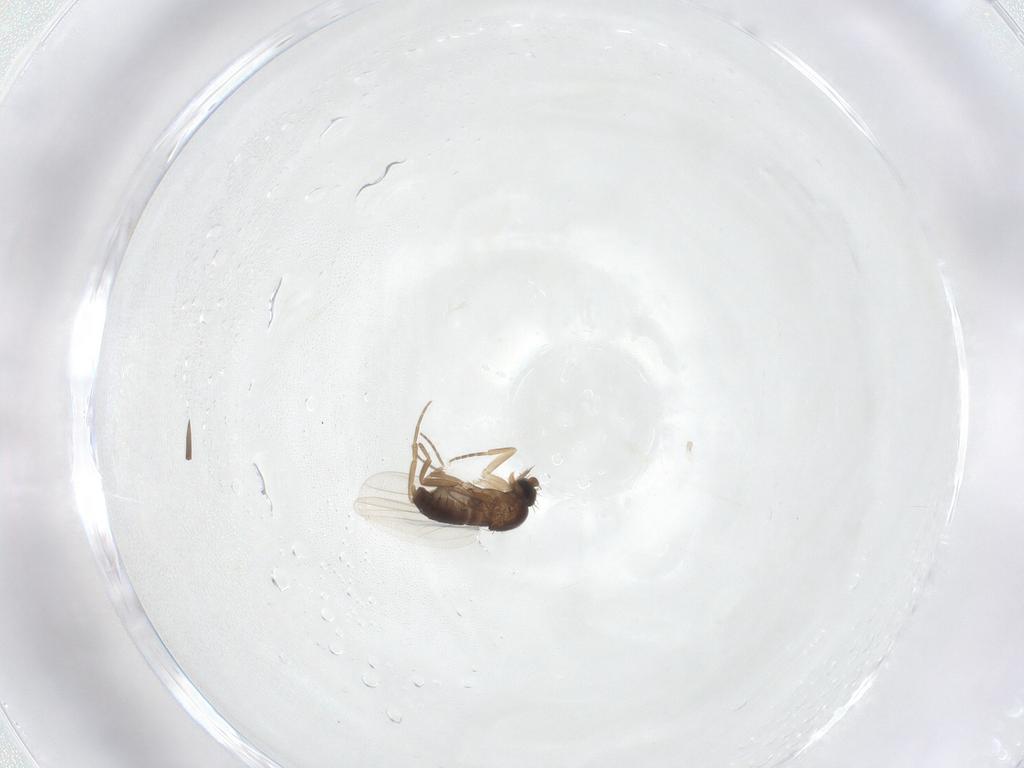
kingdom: Animalia
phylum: Arthropoda
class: Insecta
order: Diptera
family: Phoridae
